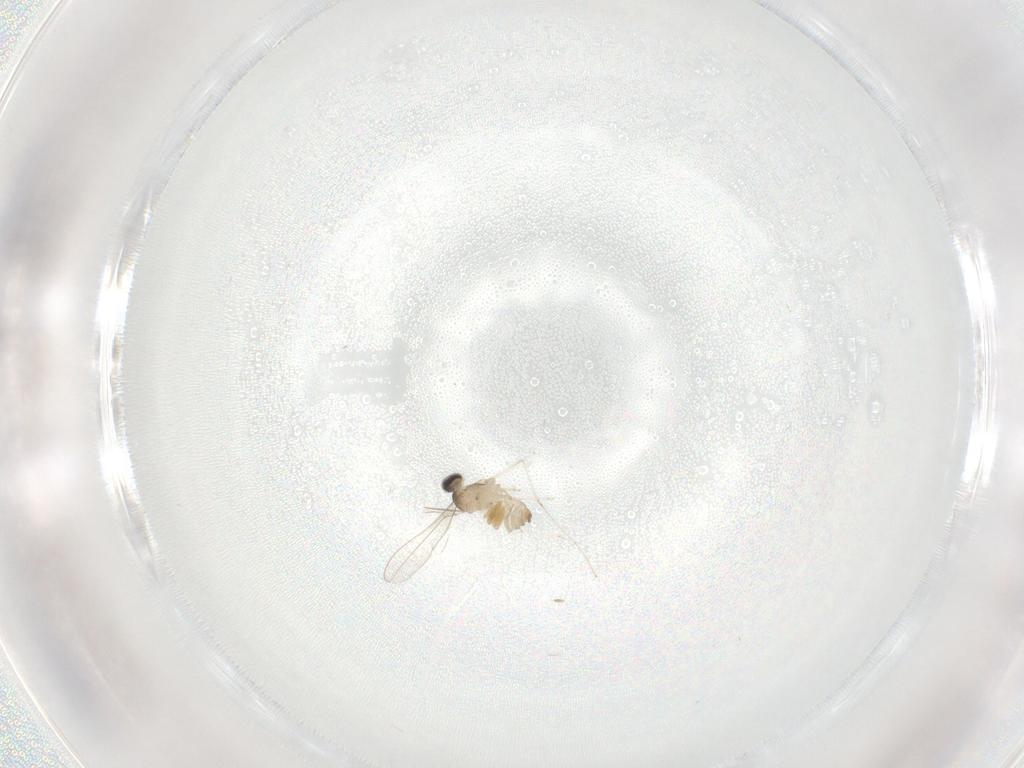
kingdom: Animalia
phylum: Arthropoda
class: Insecta
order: Diptera
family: Cecidomyiidae
